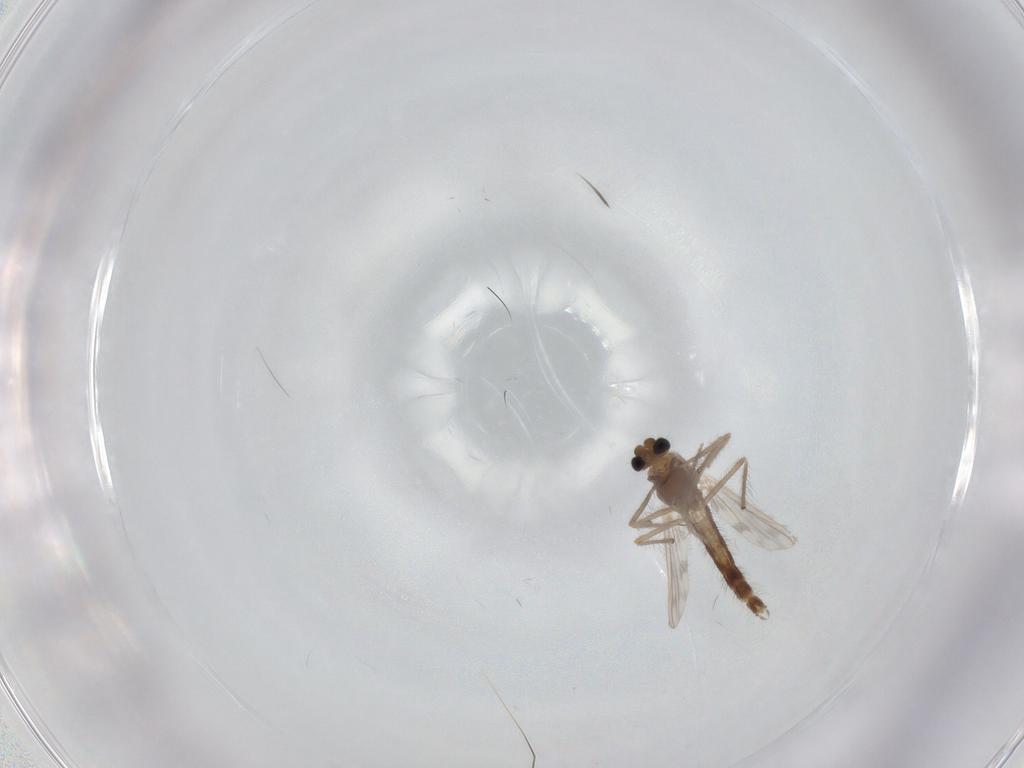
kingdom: Animalia
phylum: Arthropoda
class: Insecta
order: Diptera
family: Chironomidae
